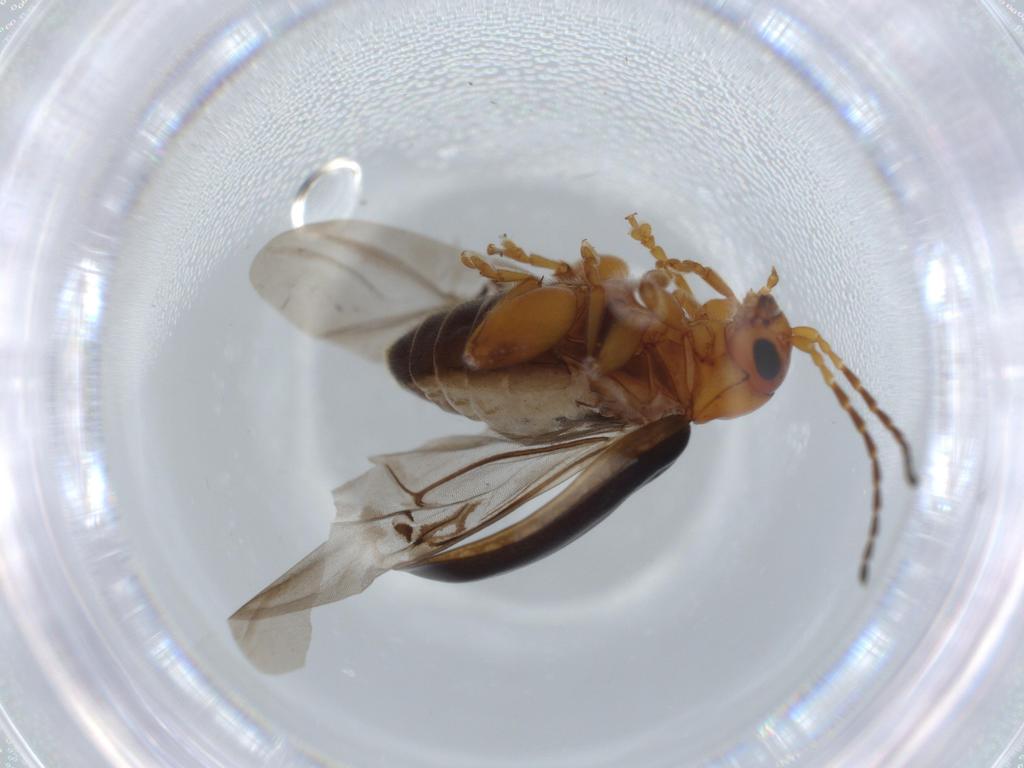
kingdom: Animalia
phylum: Arthropoda
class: Insecta
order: Coleoptera
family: Chrysomelidae
